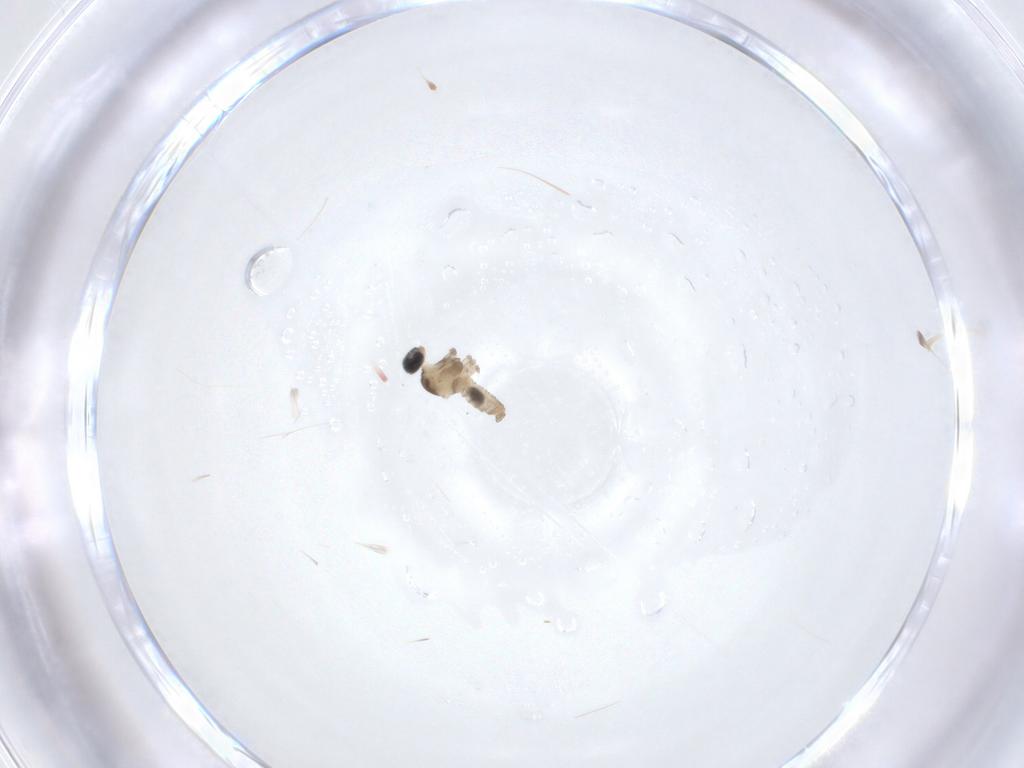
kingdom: Animalia
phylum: Arthropoda
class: Insecta
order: Diptera
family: Cecidomyiidae
